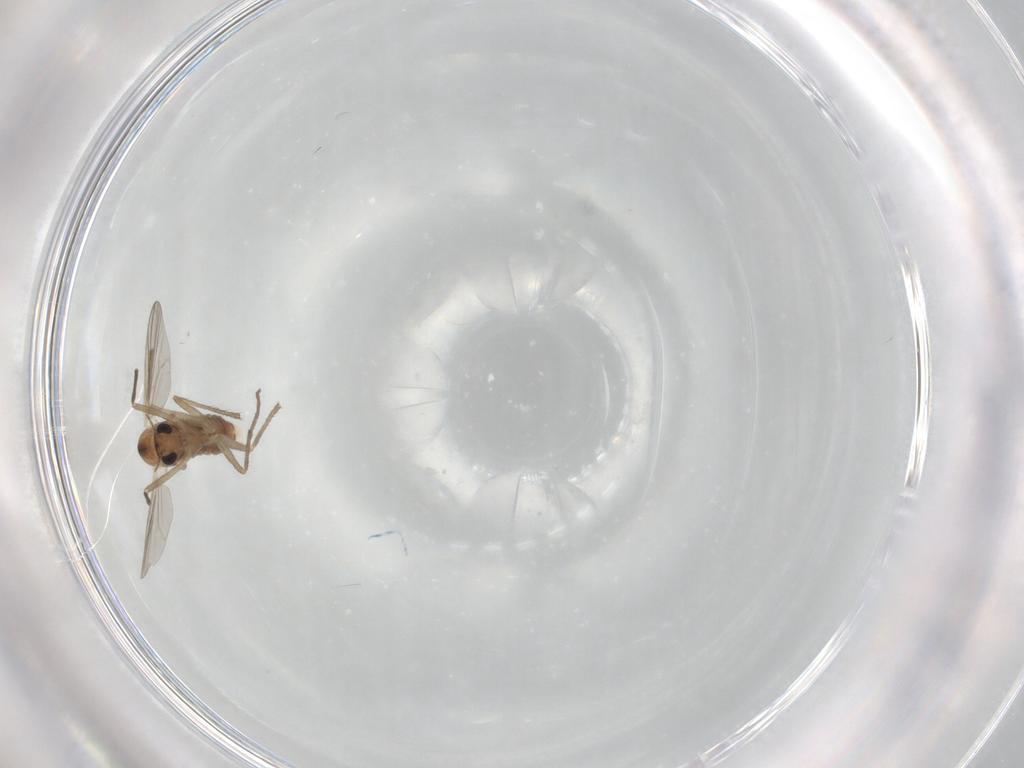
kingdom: Animalia
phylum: Arthropoda
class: Insecta
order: Diptera
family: Chironomidae
